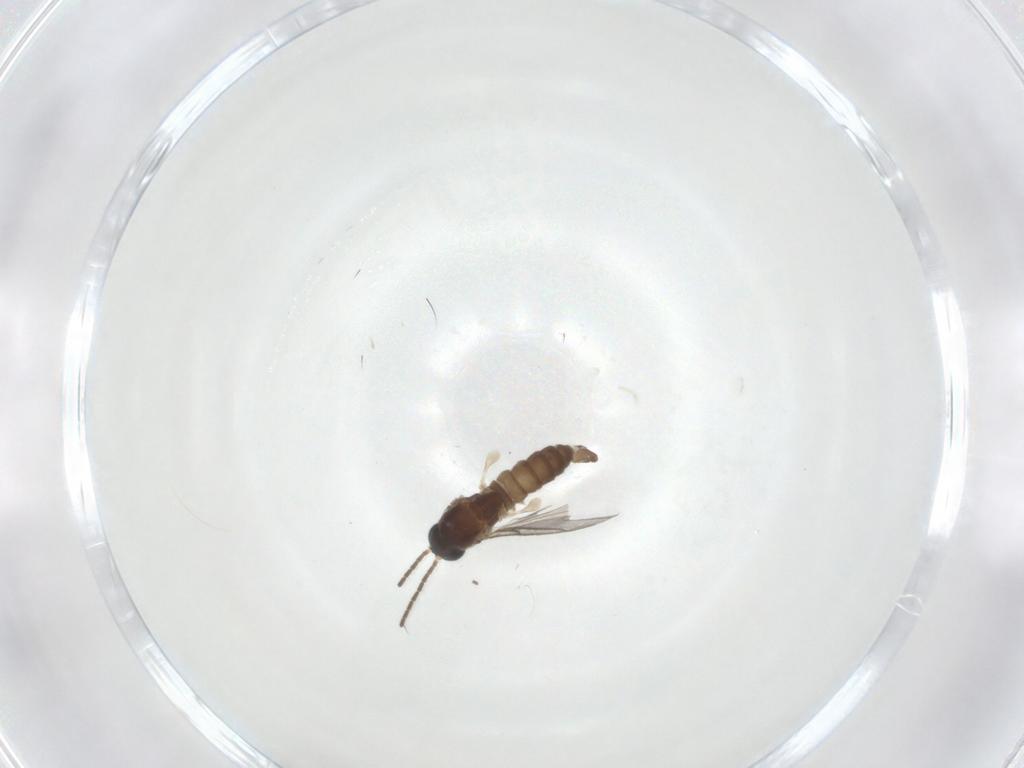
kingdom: Animalia
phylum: Arthropoda
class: Insecta
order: Diptera
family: Sciaridae
